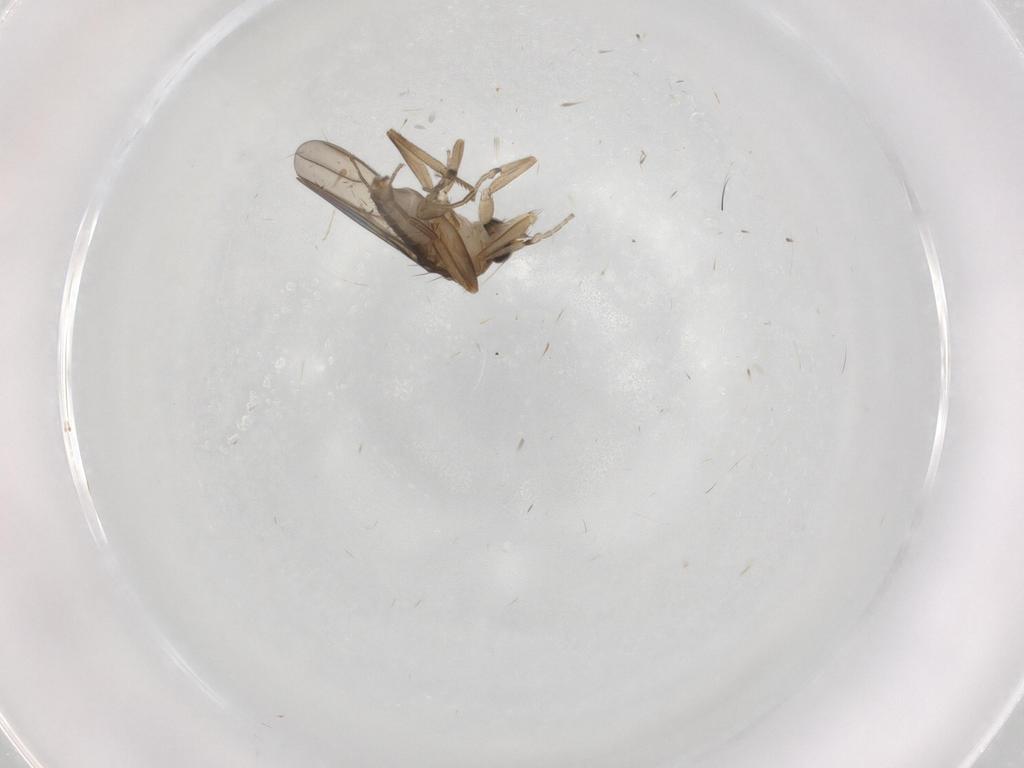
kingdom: Animalia
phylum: Arthropoda
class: Insecta
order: Diptera
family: Cecidomyiidae
